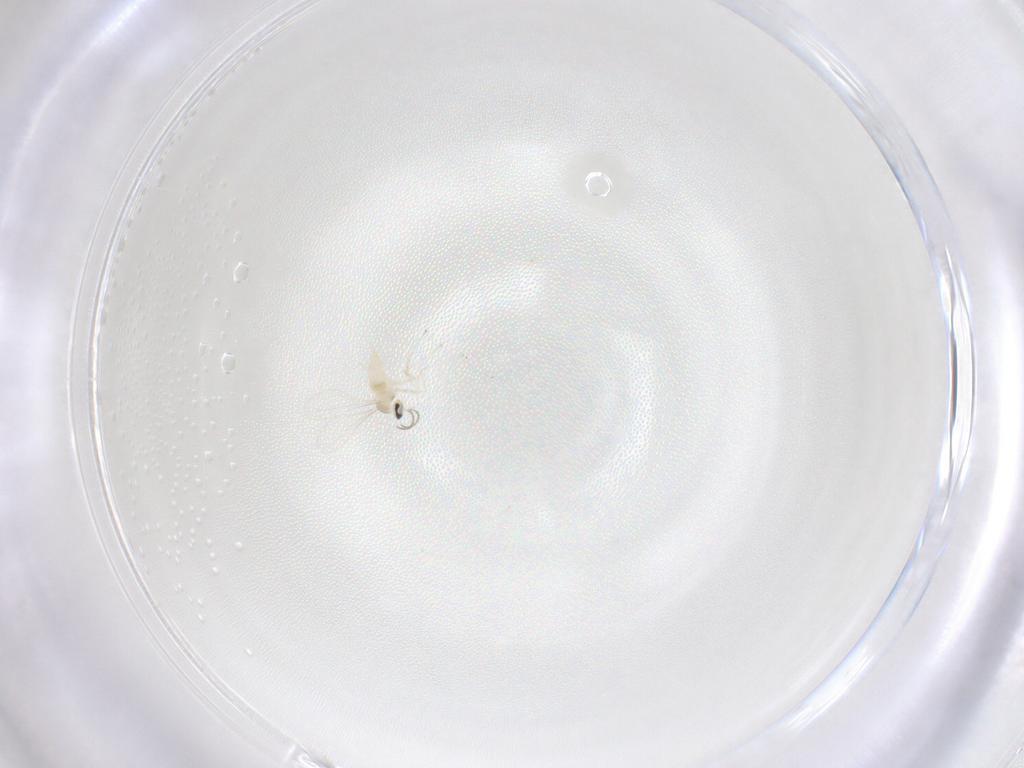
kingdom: Animalia
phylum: Arthropoda
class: Insecta
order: Diptera
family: Cecidomyiidae
